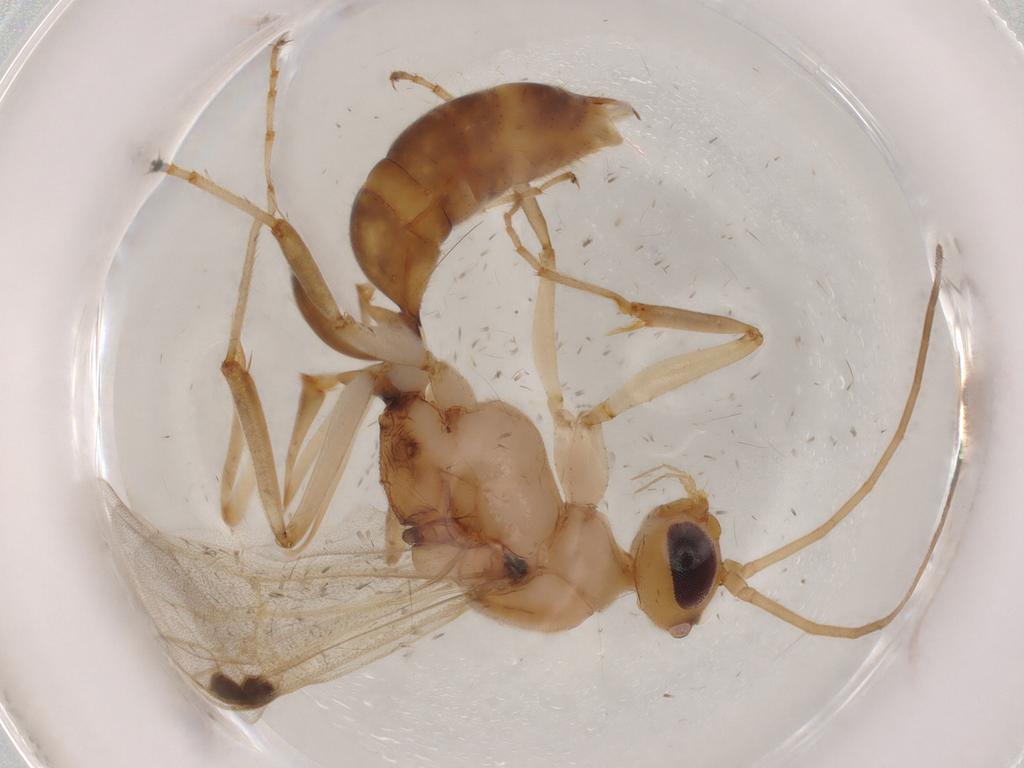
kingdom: Animalia
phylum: Arthropoda
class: Insecta
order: Hymenoptera
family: Formicidae
